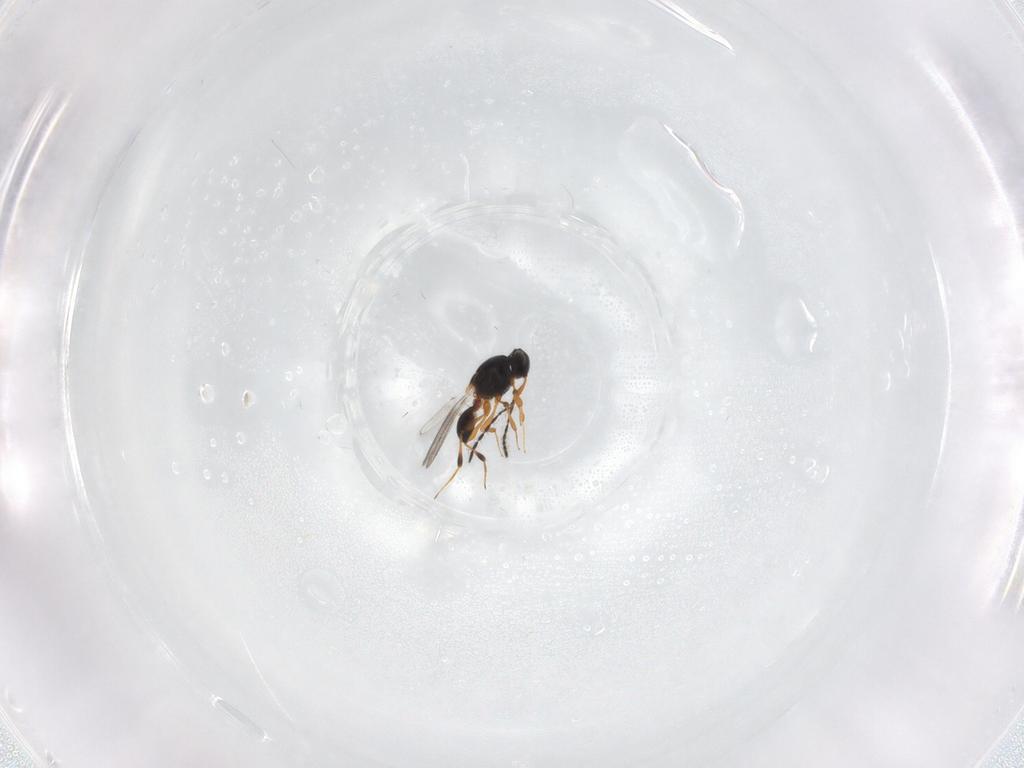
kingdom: Animalia
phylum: Arthropoda
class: Insecta
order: Hymenoptera
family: Platygastridae
